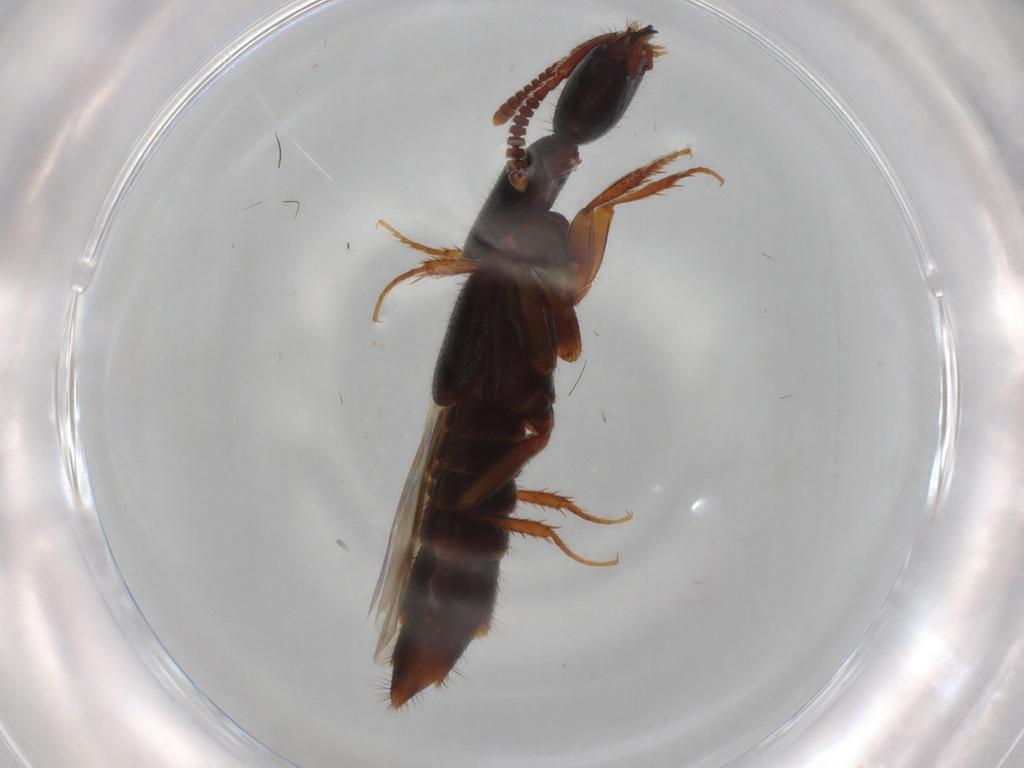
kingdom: Animalia
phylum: Arthropoda
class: Insecta
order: Coleoptera
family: Staphylinidae
